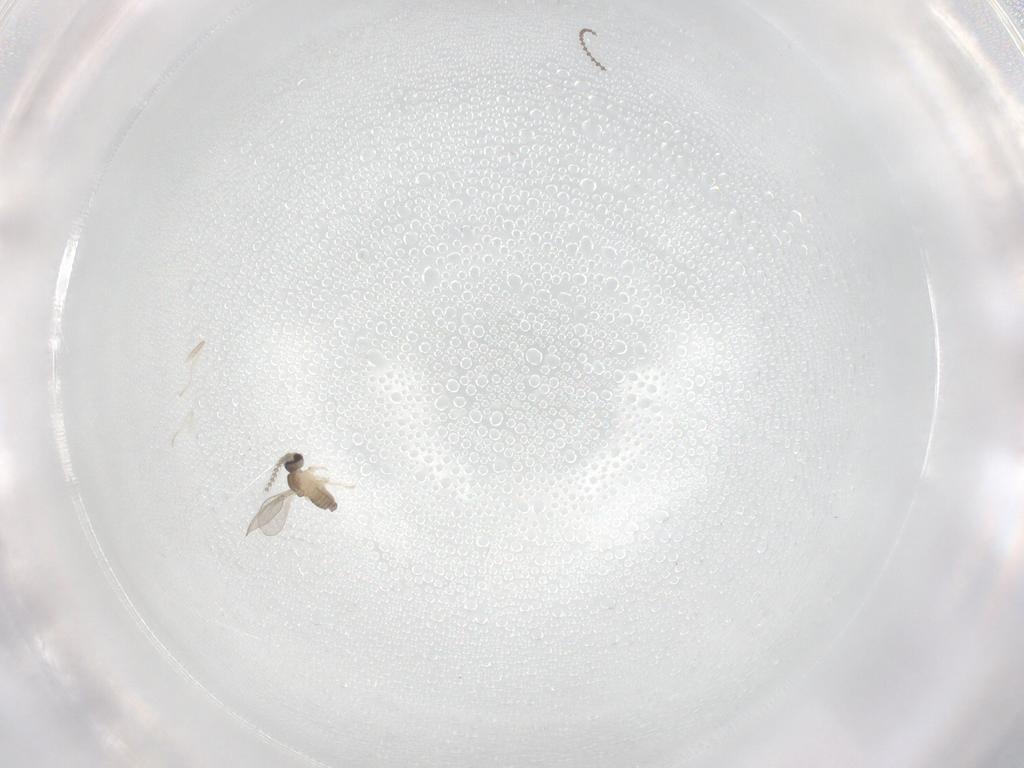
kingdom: Animalia
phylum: Arthropoda
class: Insecta
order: Diptera
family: Cecidomyiidae
